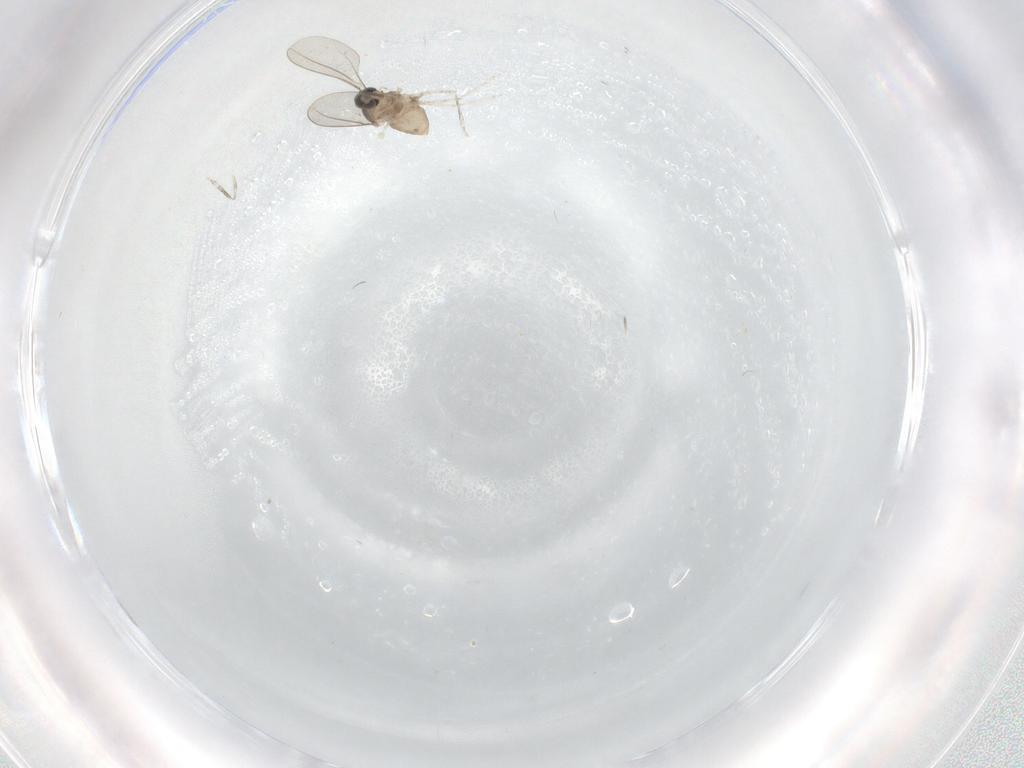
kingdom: Animalia
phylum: Arthropoda
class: Insecta
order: Diptera
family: Cecidomyiidae
